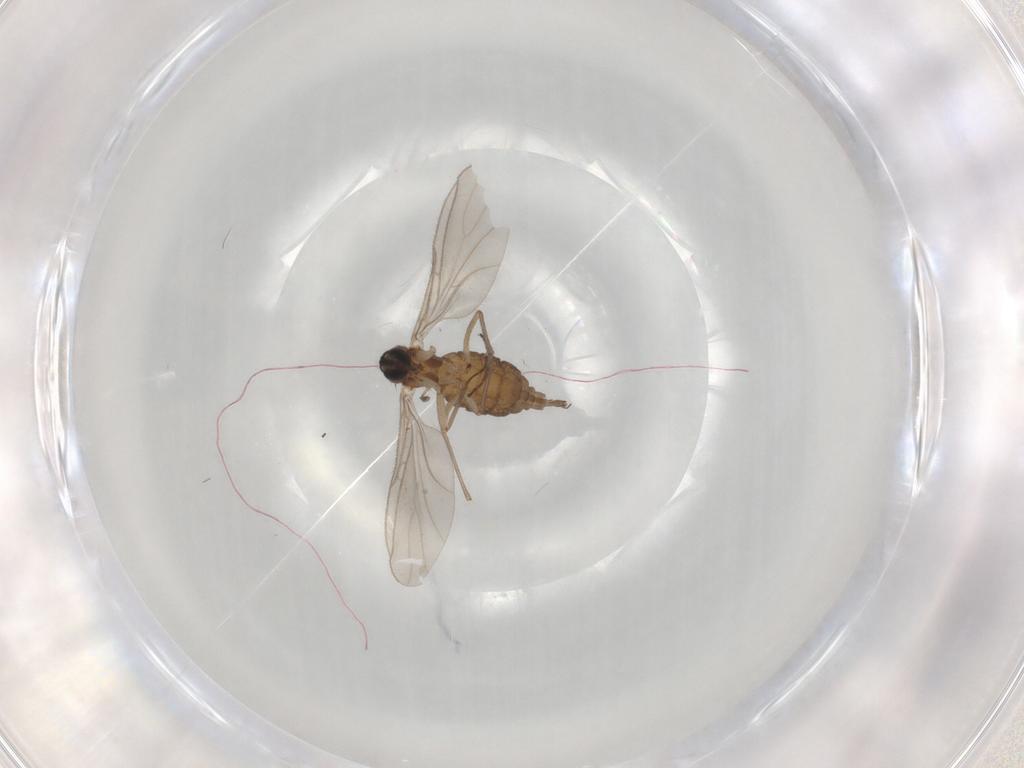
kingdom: Animalia
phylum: Arthropoda
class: Insecta
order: Diptera
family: Sciaridae
